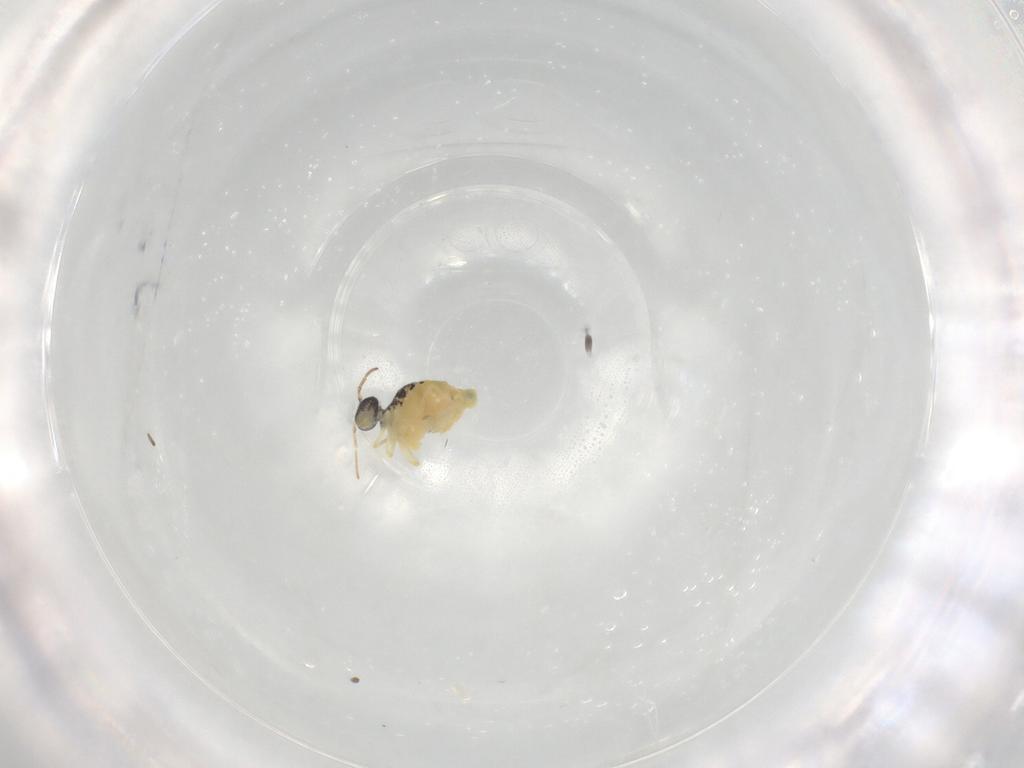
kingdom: Animalia
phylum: Arthropoda
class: Collembola
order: Symphypleona
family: Bourletiellidae
